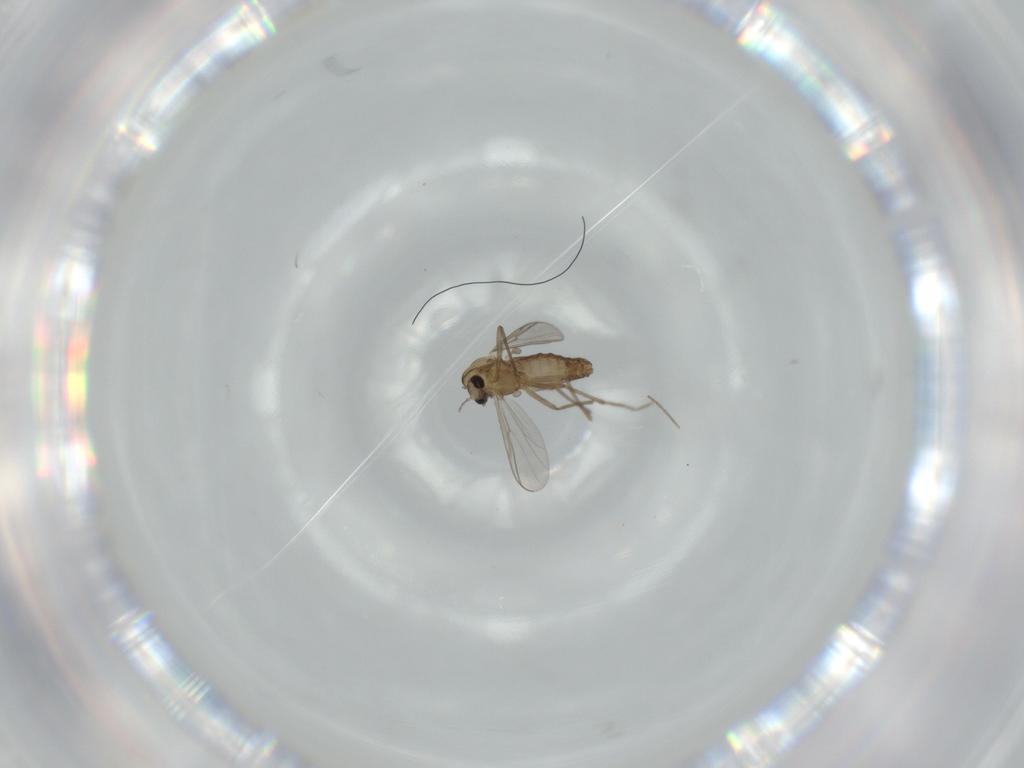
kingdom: Animalia
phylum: Arthropoda
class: Insecta
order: Diptera
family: Chironomidae
